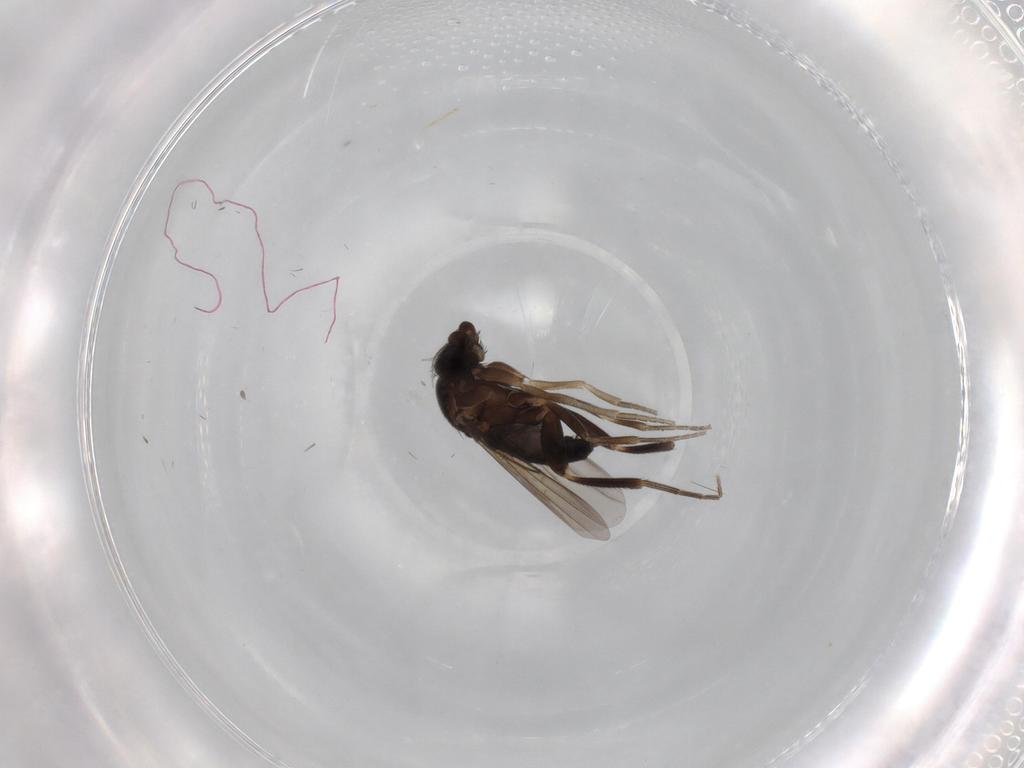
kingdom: Animalia
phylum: Arthropoda
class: Insecta
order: Diptera
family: Phoridae
